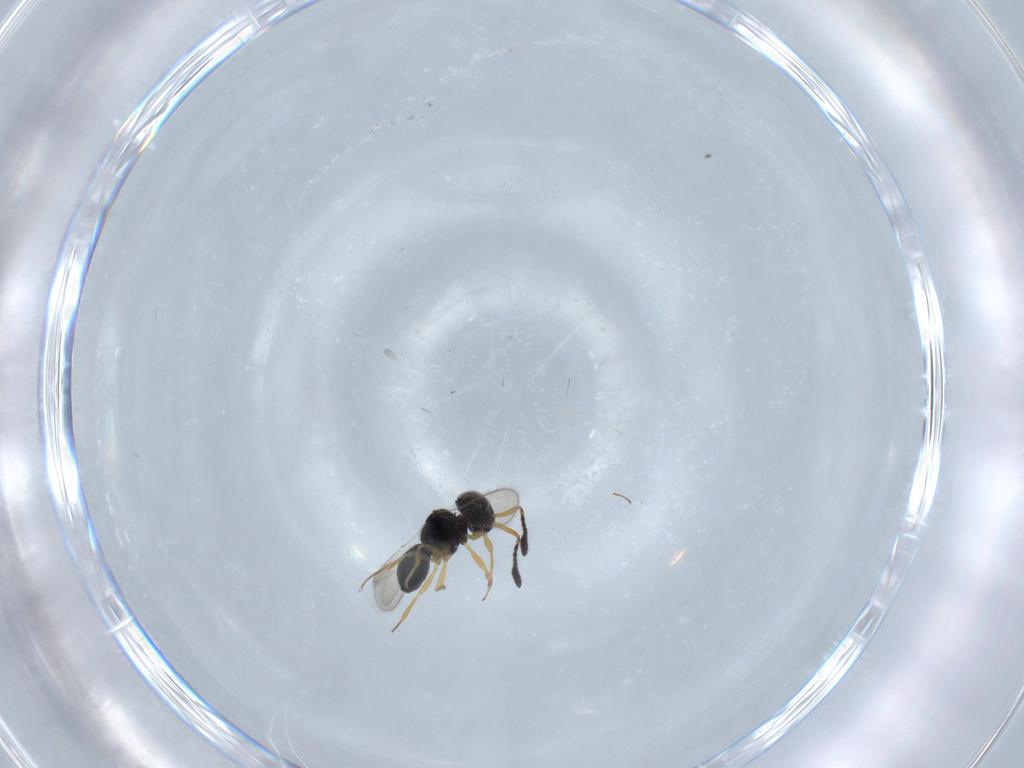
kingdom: Animalia
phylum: Arthropoda
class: Insecta
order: Hymenoptera
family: Scelionidae
